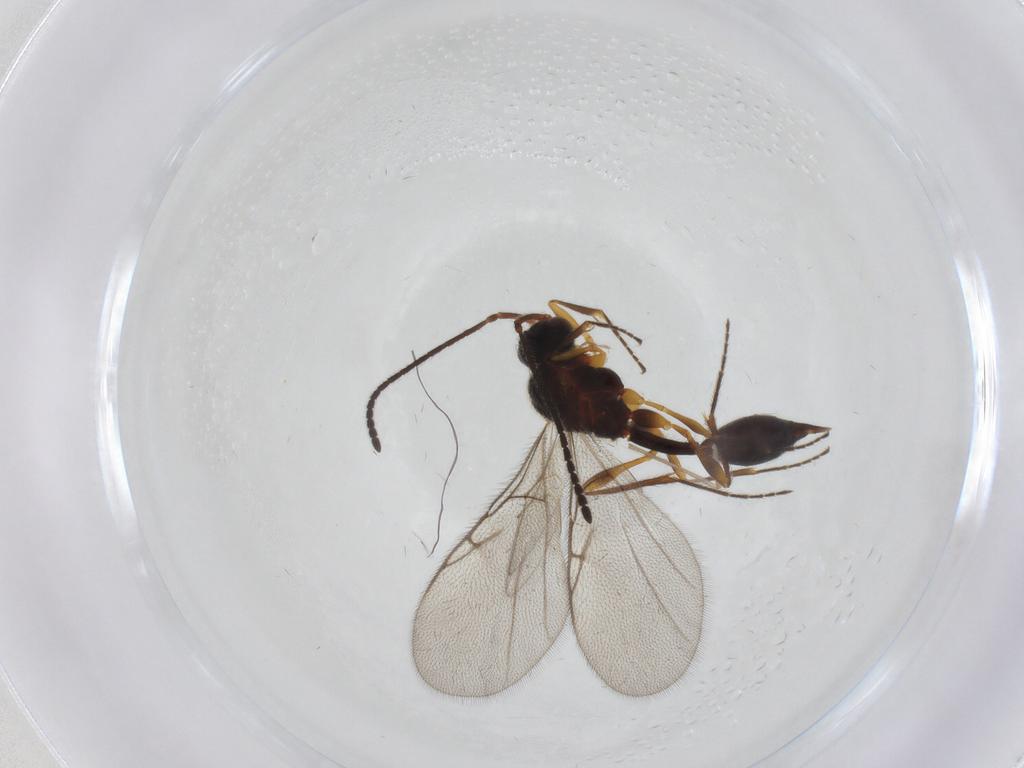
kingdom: Animalia
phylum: Arthropoda
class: Insecta
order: Hymenoptera
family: Diapriidae
